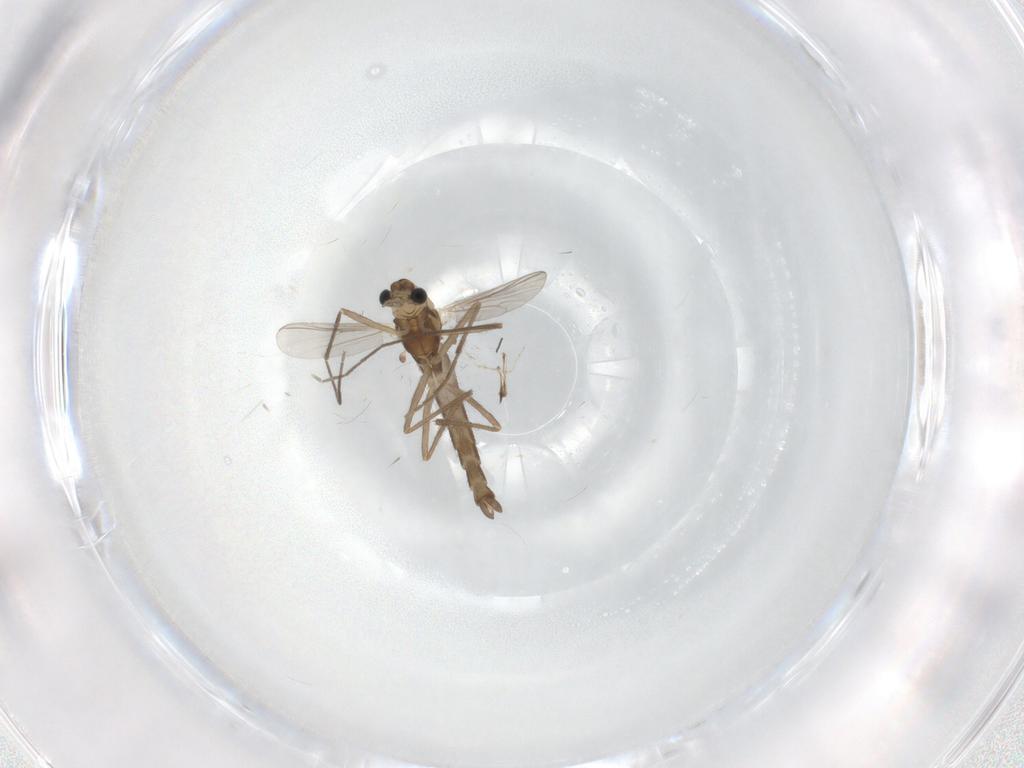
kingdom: Animalia
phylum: Arthropoda
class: Insecta
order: Diptera
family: Chironomidae
